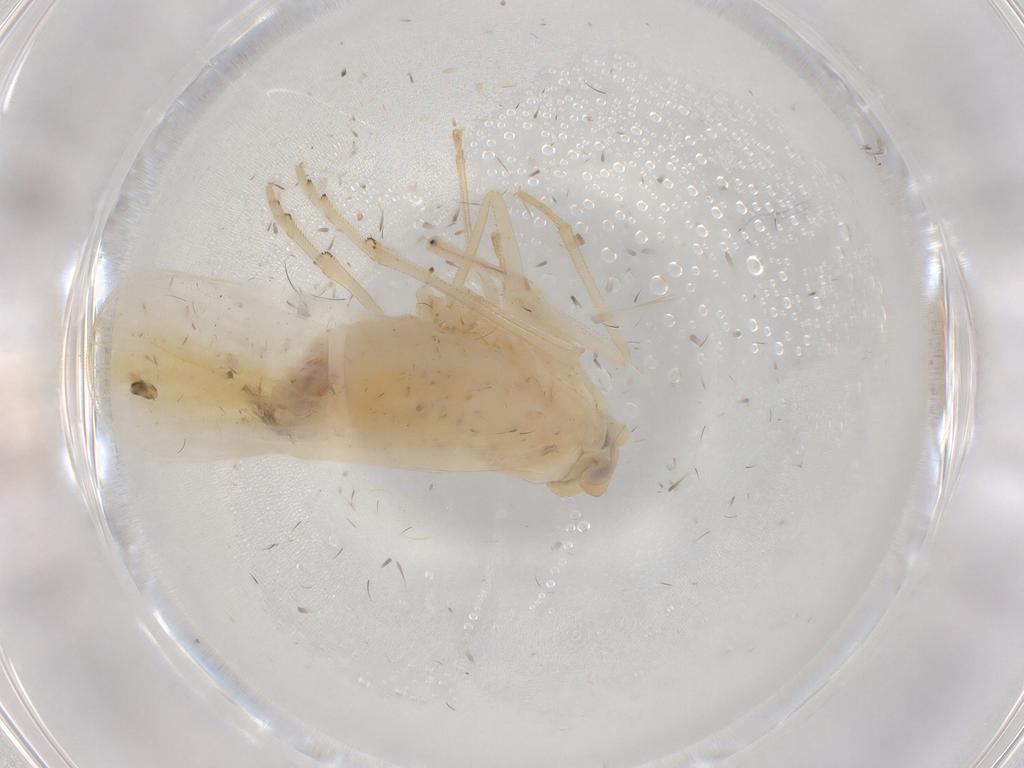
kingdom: Animalia
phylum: Arthropoda
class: Insecta
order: Hemiptera
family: Derbidae
